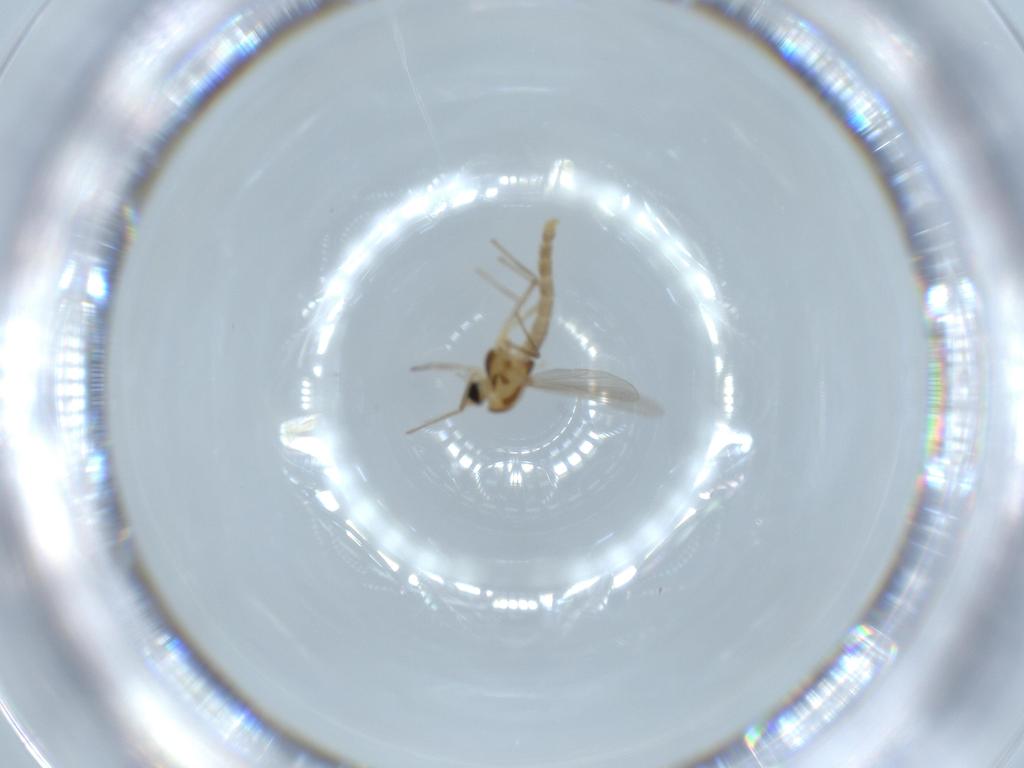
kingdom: Animalia
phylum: Arthropoda
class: Insecta
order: Diptera
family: Chironomidae
